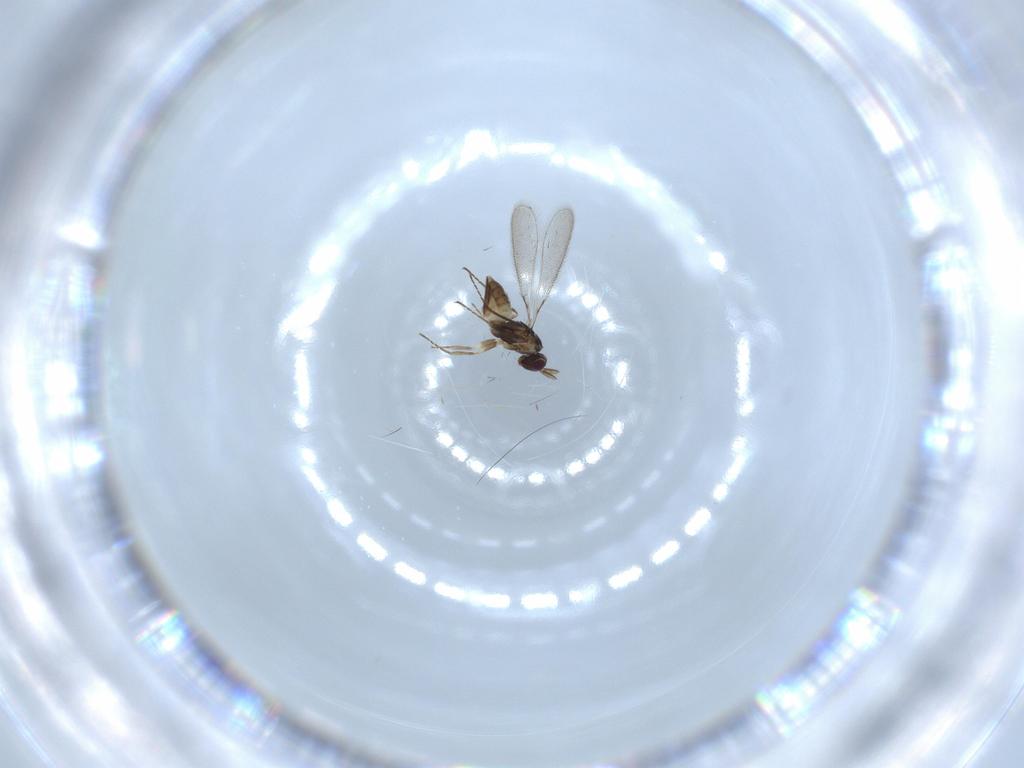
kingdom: Animalia
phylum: Arthropoda
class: Insecta
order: Hymenoptera
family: Mymaridae
